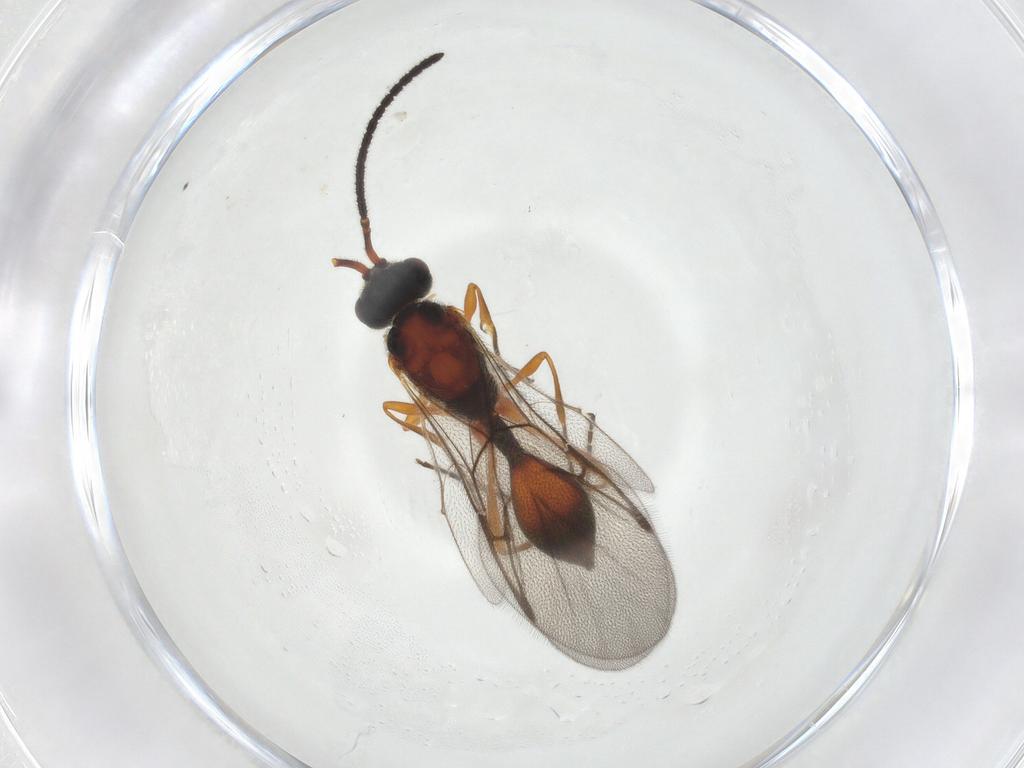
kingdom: Animalia
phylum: Arthropoda
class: Insecta
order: Hymenoptera
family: Diapriidae
